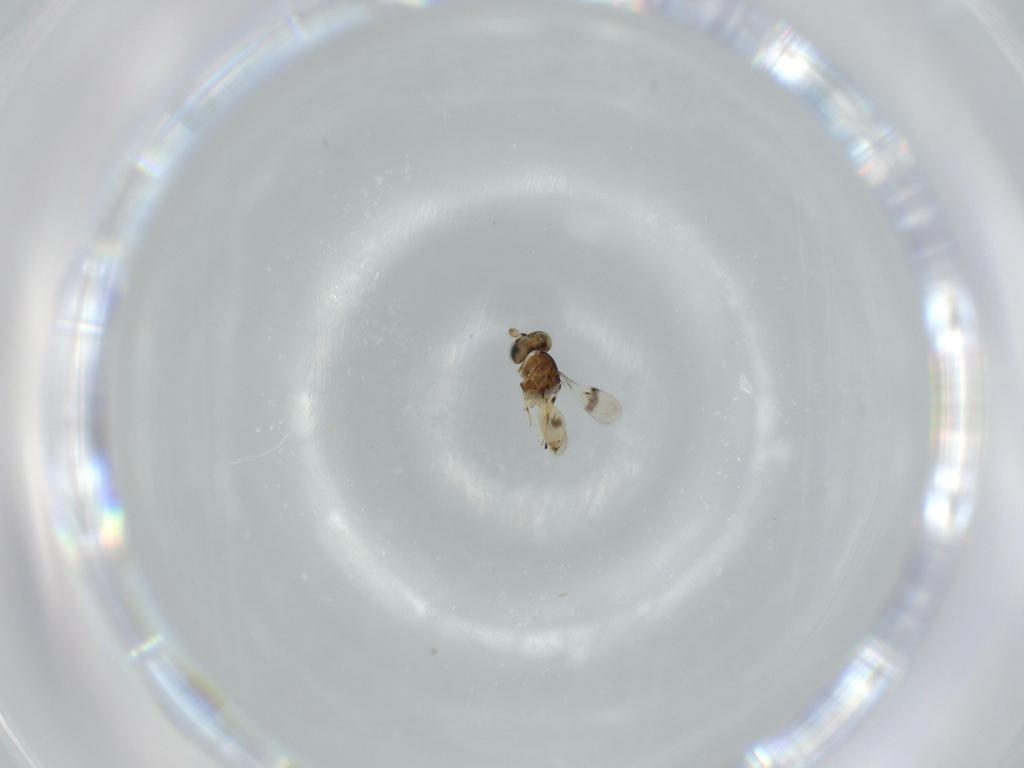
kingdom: Animalia
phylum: Arthropoda
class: Insecta
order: Hymenoptera
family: Scelionidae
